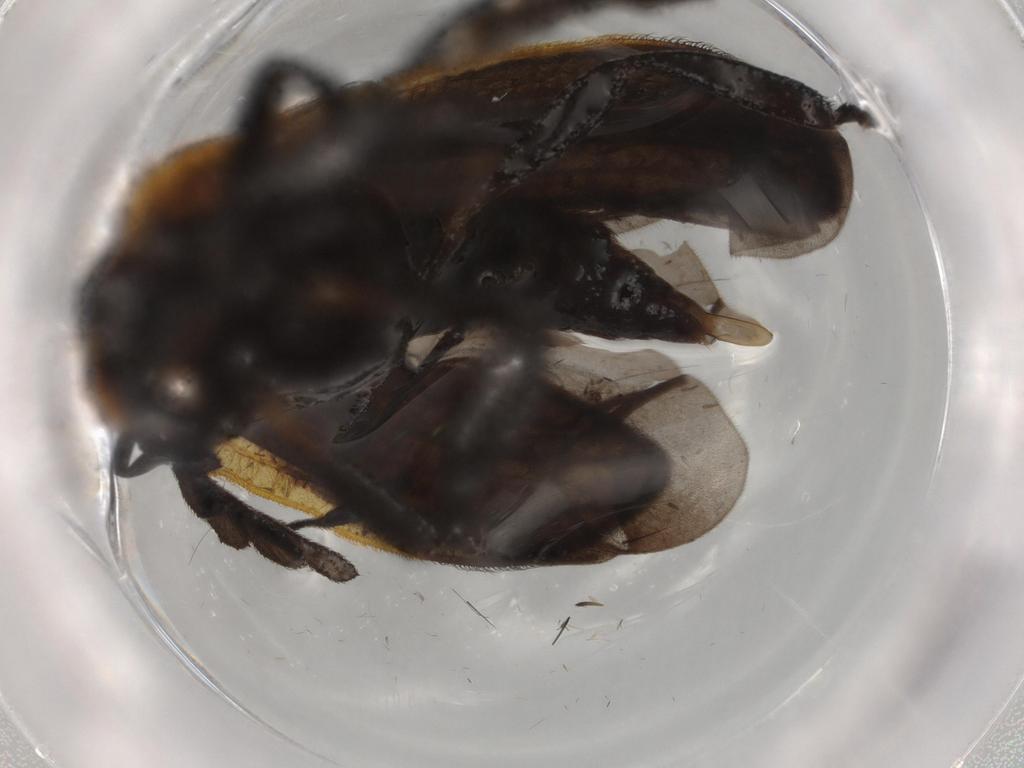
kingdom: Animalia
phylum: Arthropoda
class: Insecta
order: Coleoptera
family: Lycidae
